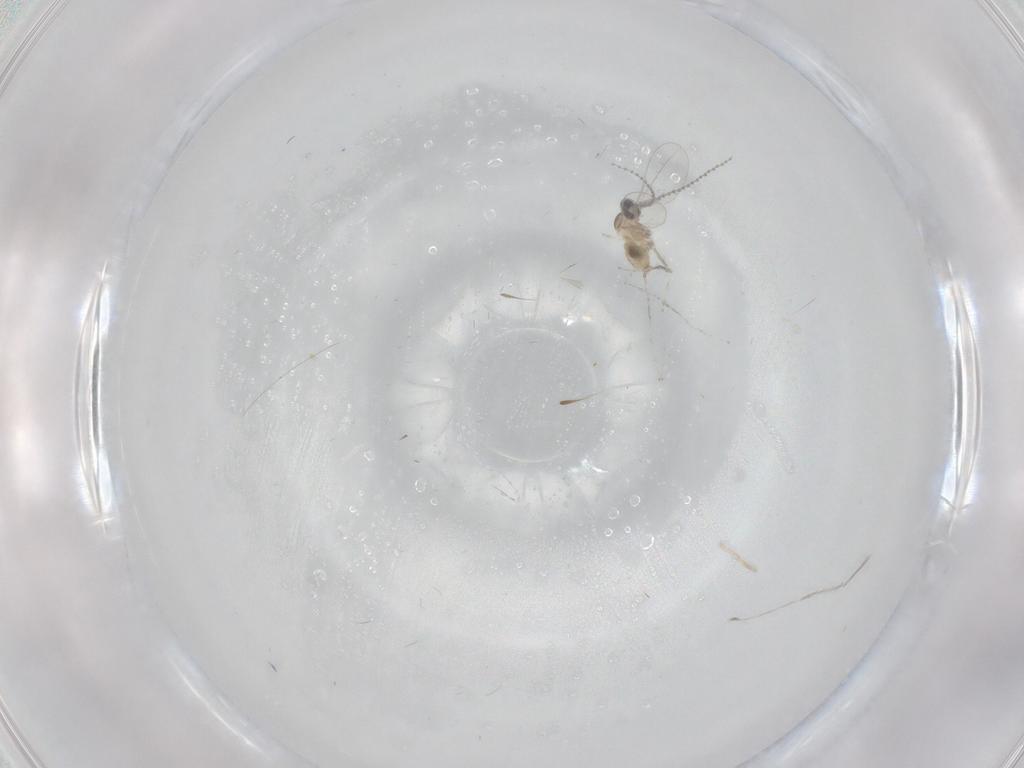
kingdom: Animalia
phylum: Arthropoda
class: Insecta
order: Diptera
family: Cecidomyiidae
